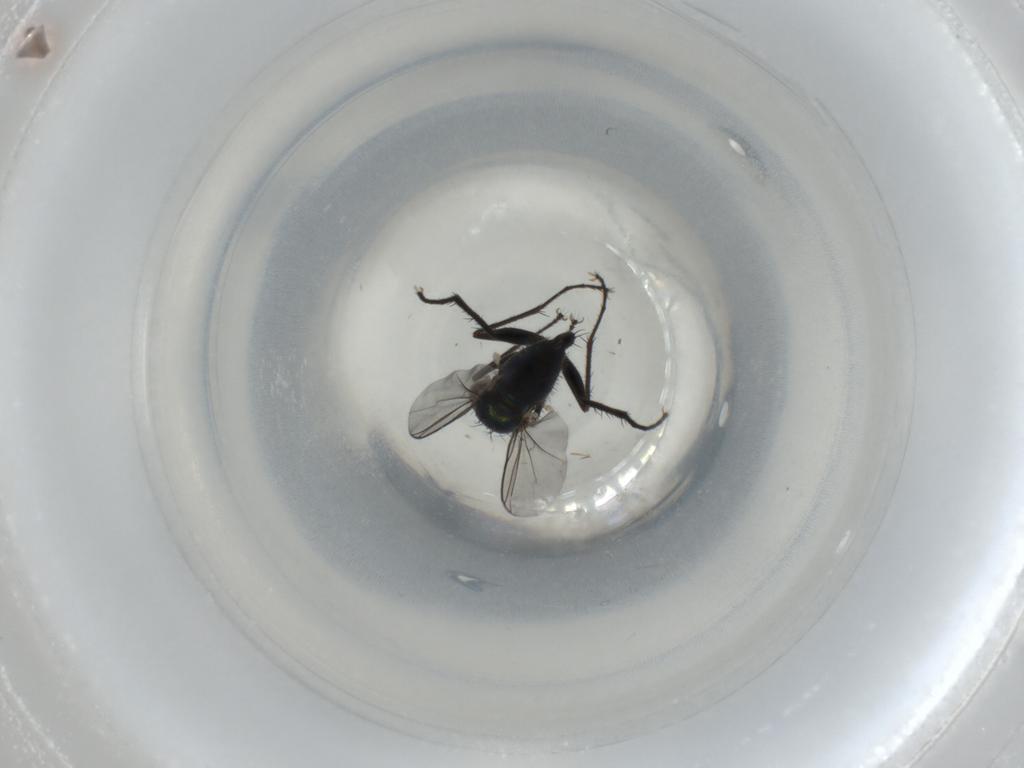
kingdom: Animalia
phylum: Arthropoda
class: Insecta
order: Diptera
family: Dolichopodidae
